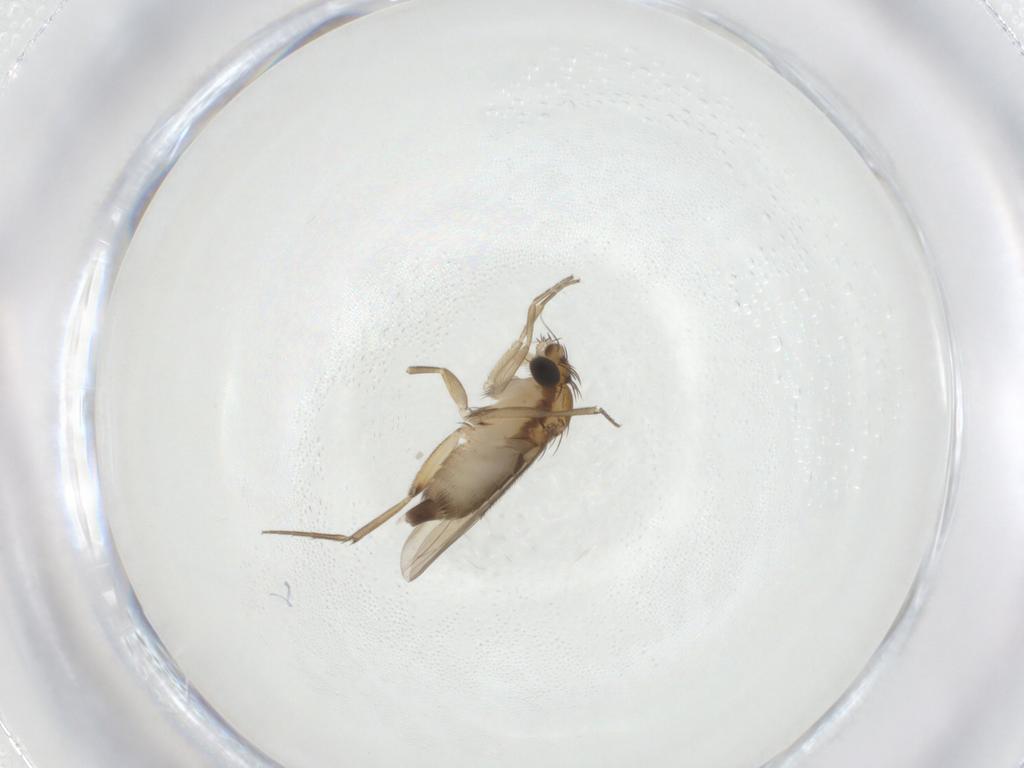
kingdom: Animalia
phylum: Arthropoda
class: Insecta
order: Diptera
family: Phoridae
